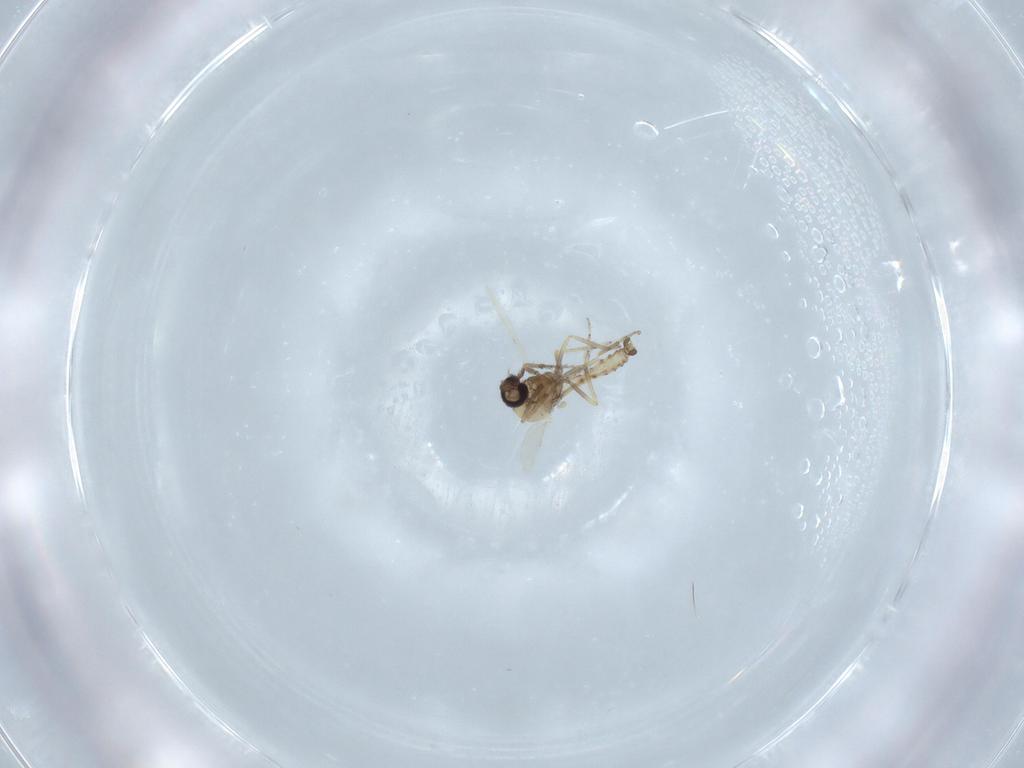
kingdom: Animalia
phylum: Arthropoda
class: Insecta
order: Diptera
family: Ceratopogonidae
